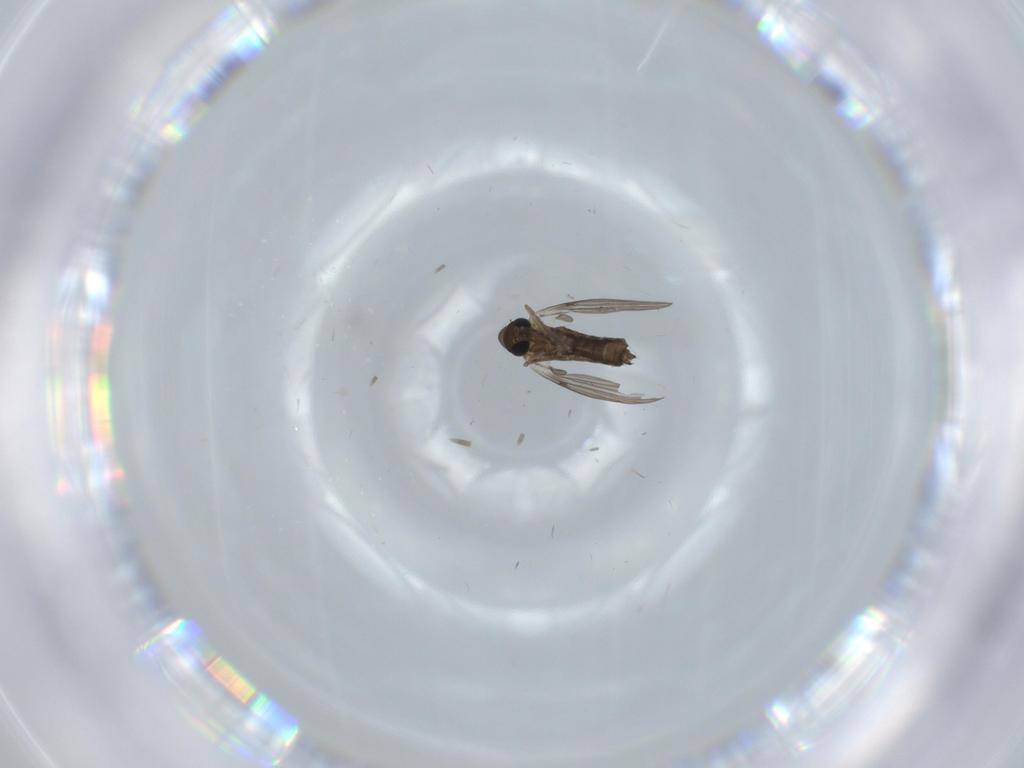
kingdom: Animalia
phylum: Arthropoda
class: Insecta
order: Diptera
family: Phoridae
